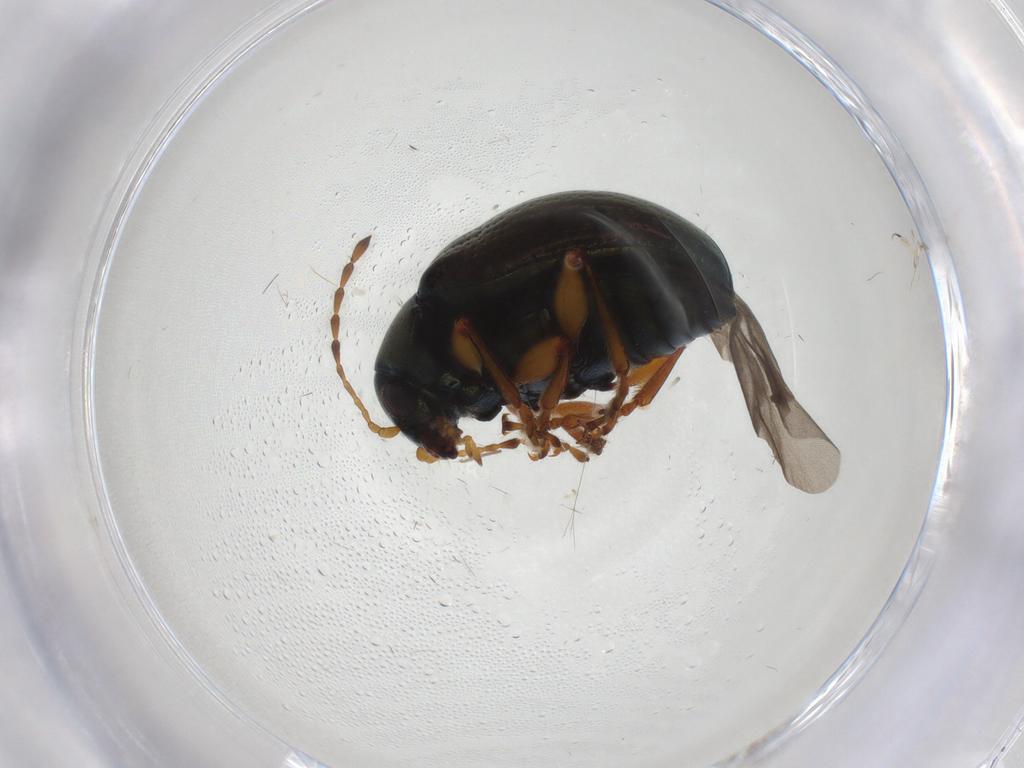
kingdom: Animalia
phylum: Arthropoda
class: Insecta
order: Coleoptera
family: Chrysomelidae
